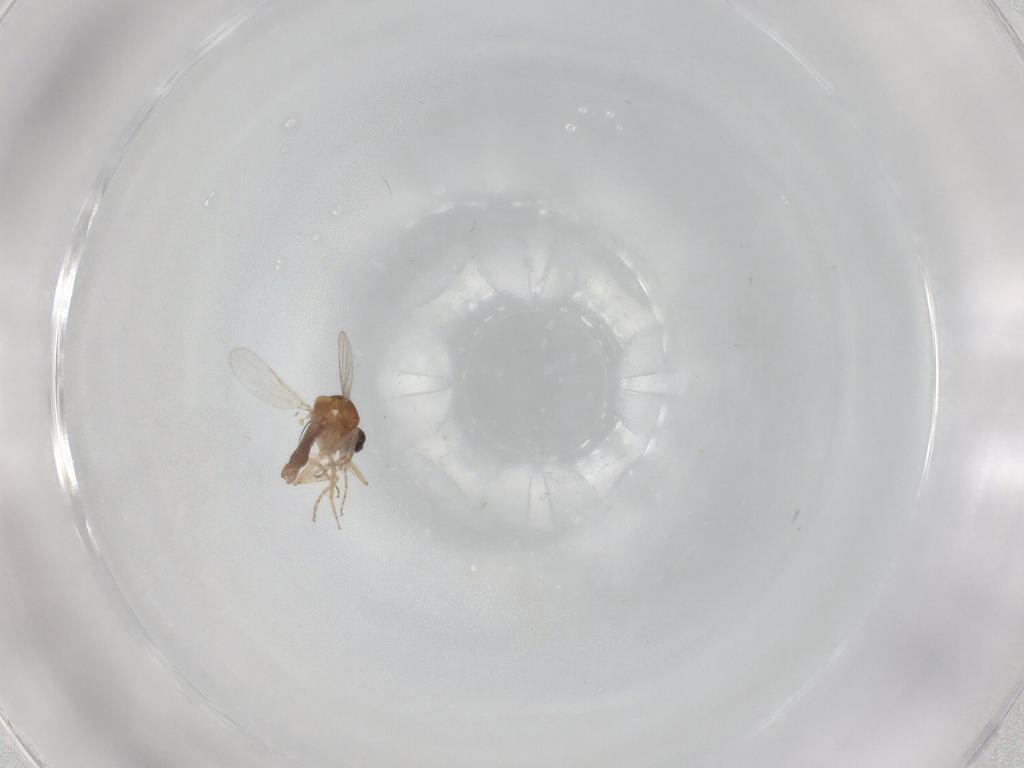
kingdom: Animalia
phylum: Arthropoda
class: Insecta
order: Diptera
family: Ceratopogonidae
